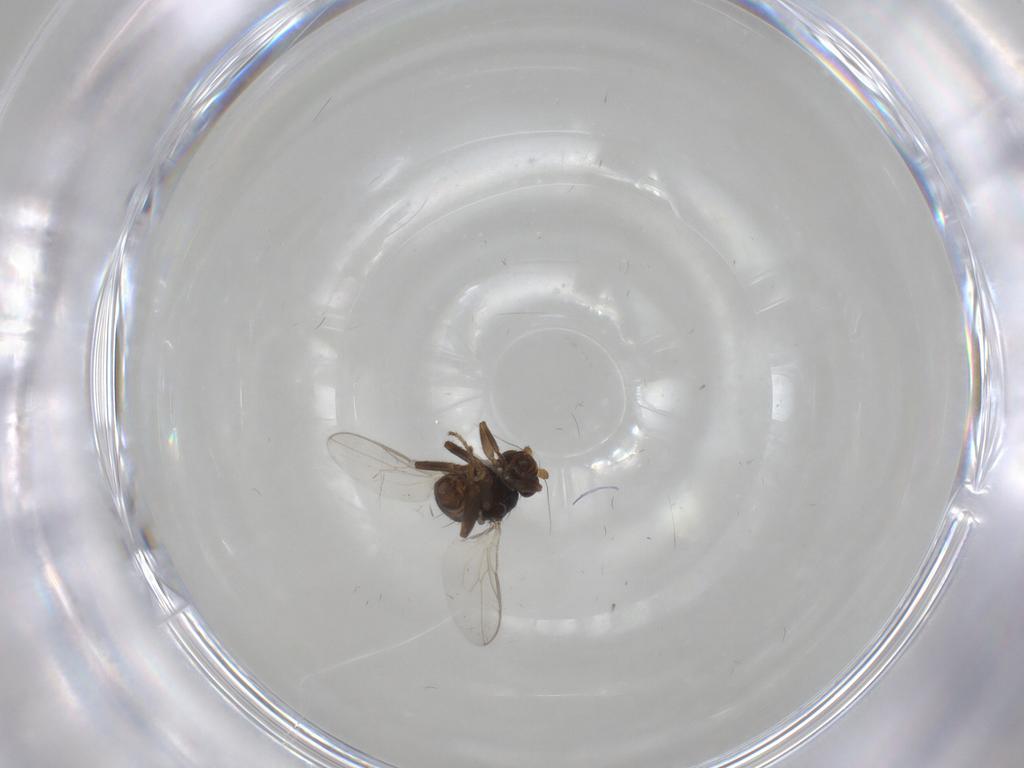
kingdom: Animalia
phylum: Arthropoda
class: Insecta
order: Diptera
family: Sphaeroceridae
